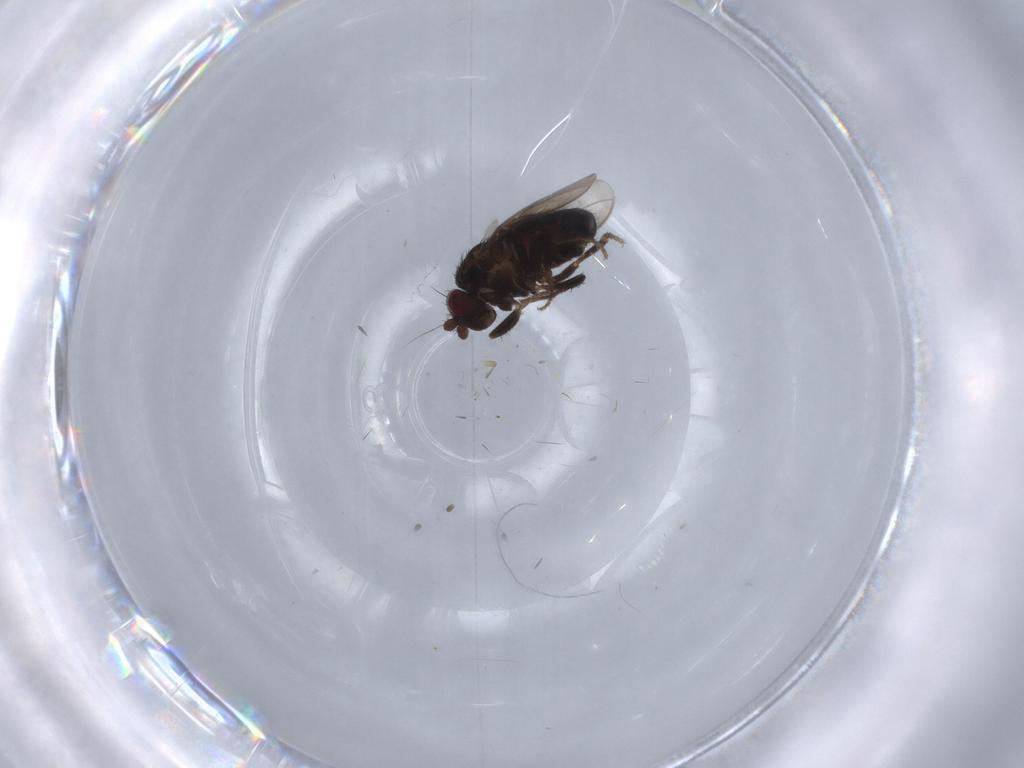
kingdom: Animalia
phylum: Arthropoda
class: Insecta
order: Diptera
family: Sphaeroceridae
